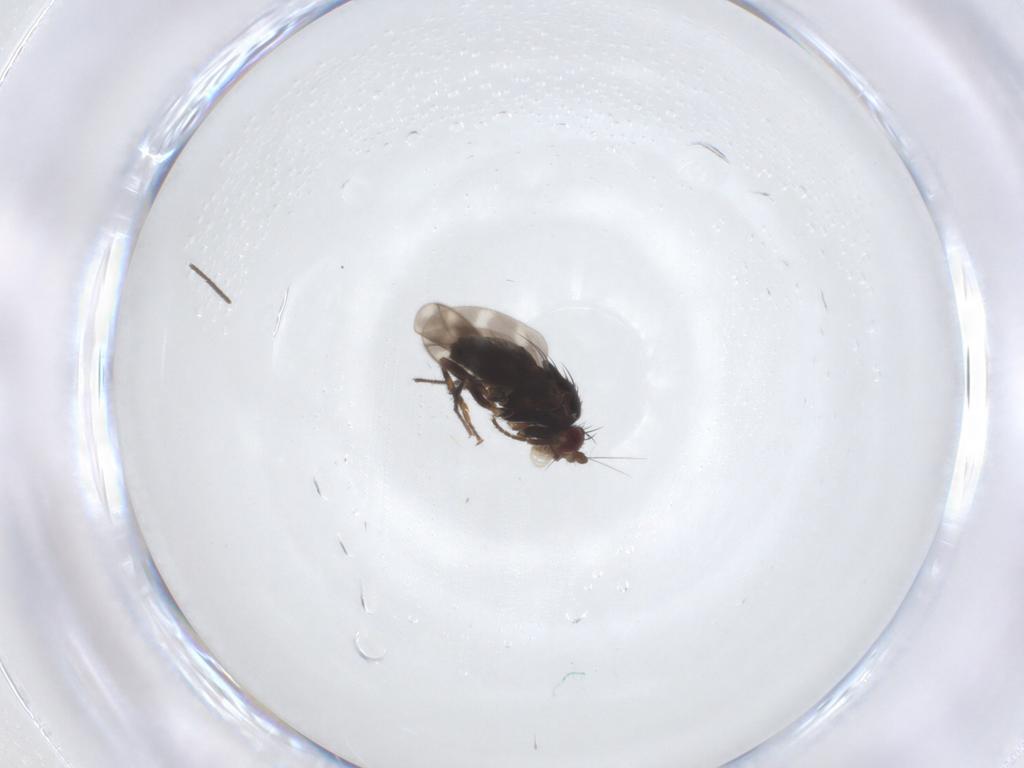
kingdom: Animalia
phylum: Arthropoda
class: Insecta
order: Diptera
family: Sphaeroceridae
